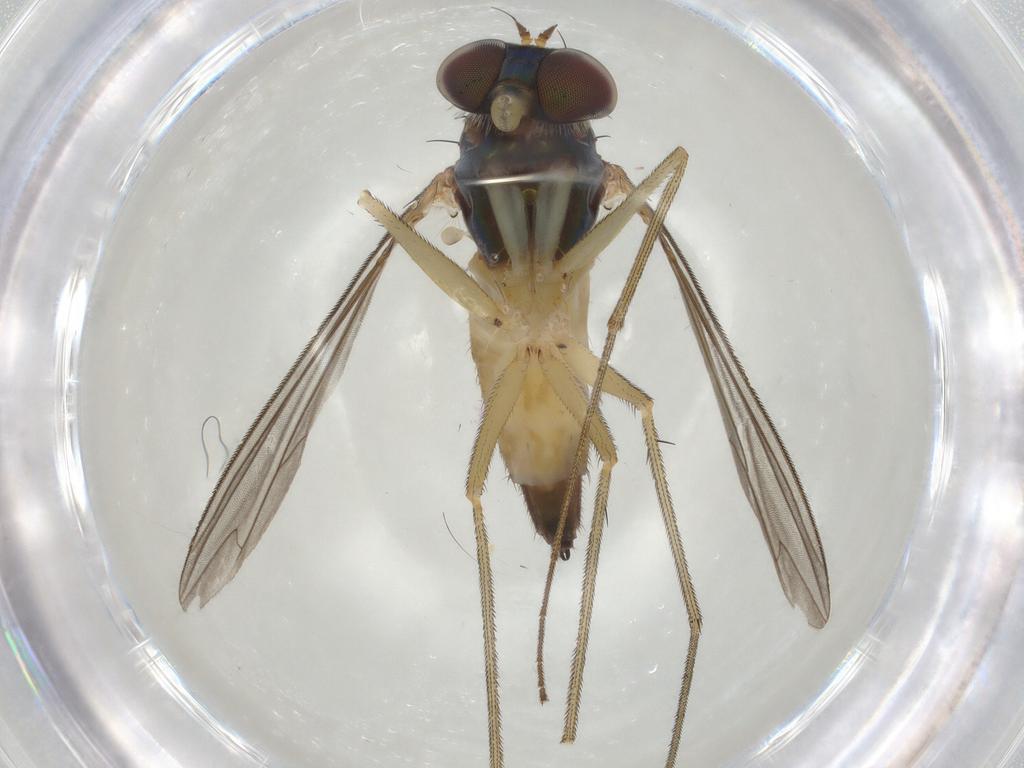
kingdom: Animalia
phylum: Arthropoda
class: Insecta
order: Diptera
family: Dolichopodidae
